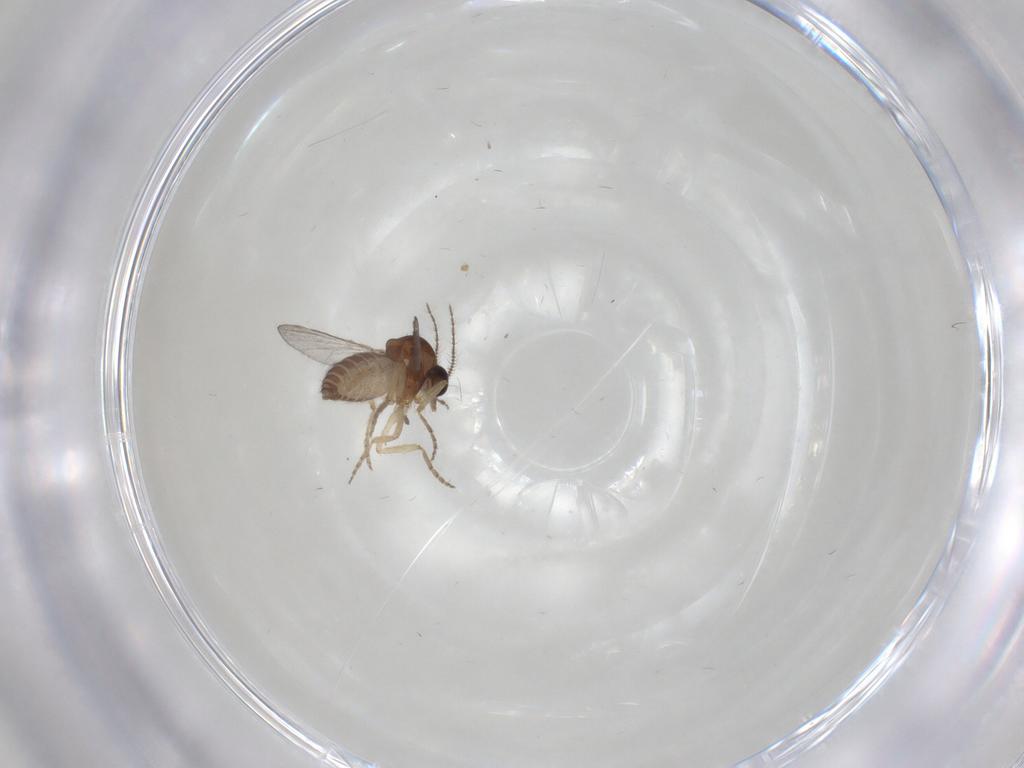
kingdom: Animalia
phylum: Arthropoda
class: Insecta
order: Diptera
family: Ceratopogonidae
